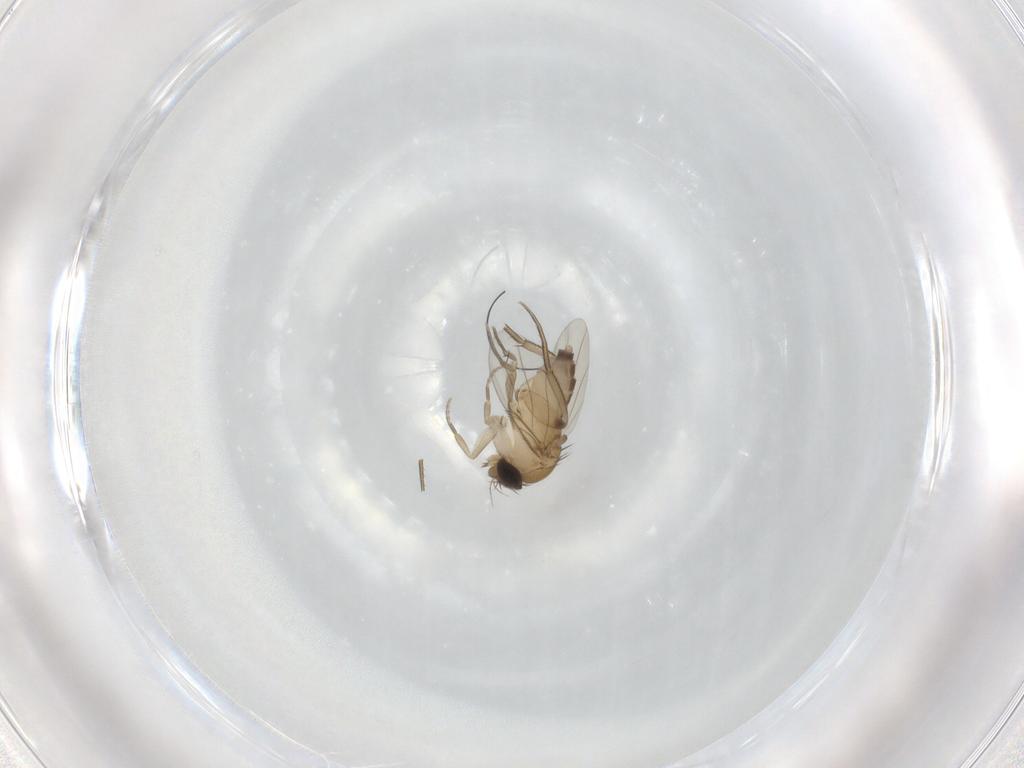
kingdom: Animalia
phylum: Arthropoda
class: Insecta
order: Diptera
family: Phoridae
